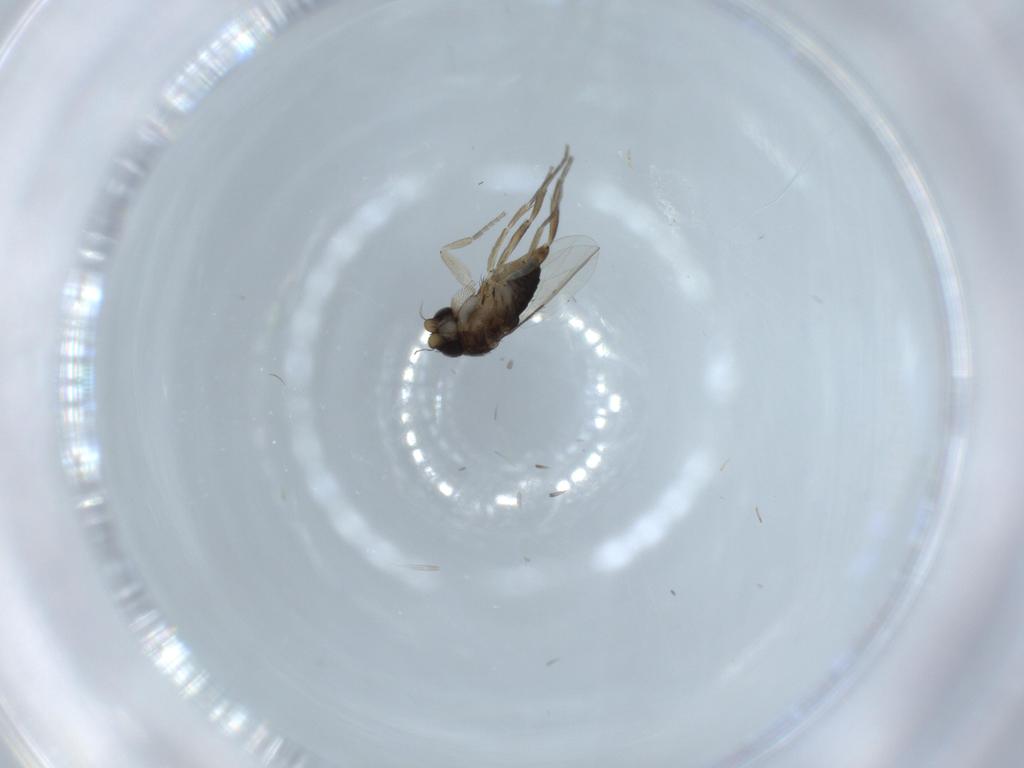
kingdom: Animalia
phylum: Arthropoda
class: Insecta
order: Diptera
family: Phoridae
